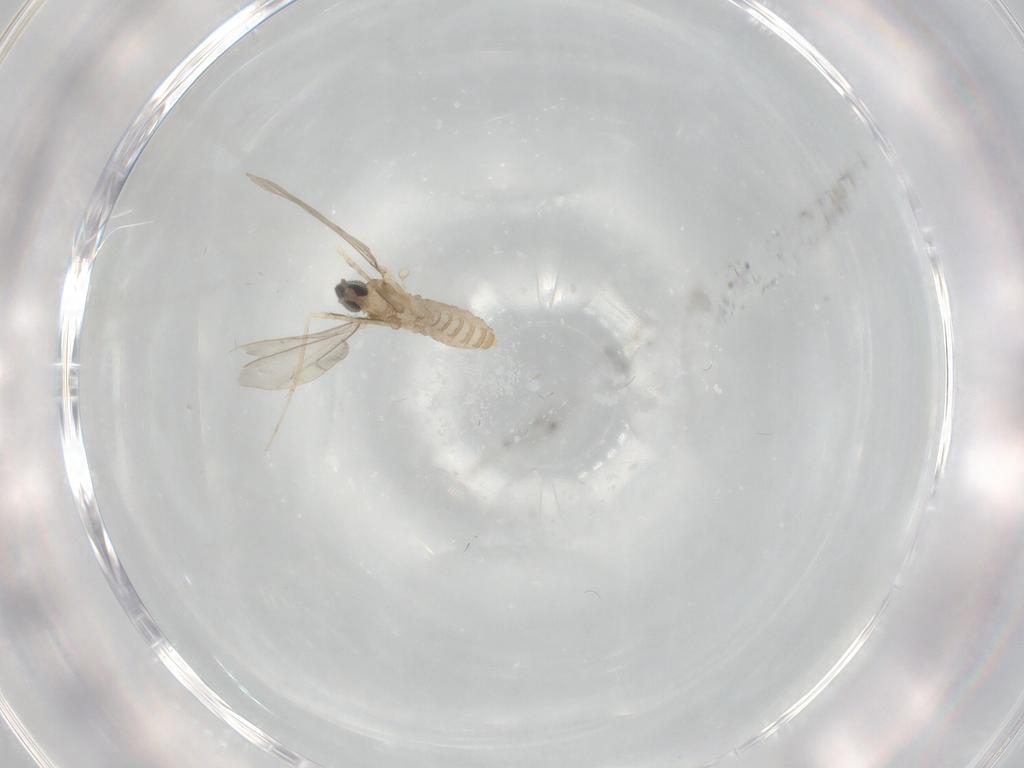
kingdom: Animalia
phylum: Arthropoda
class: Insecta
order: Diptera
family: Cecidomyiidae
